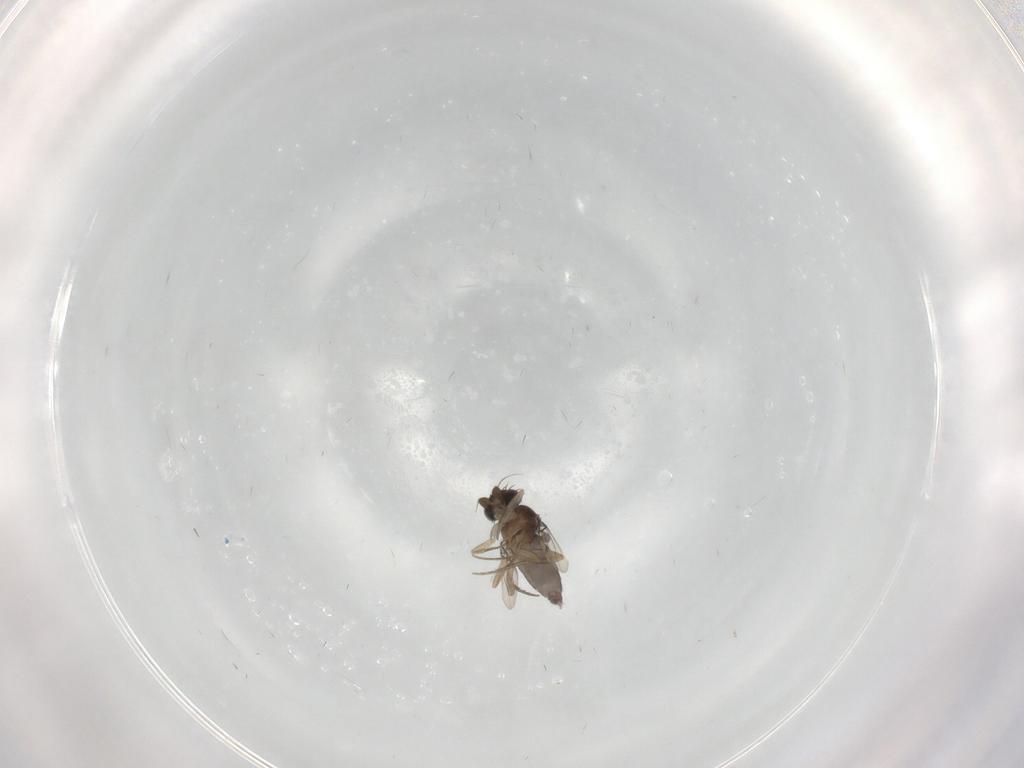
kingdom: Animalia
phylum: Arthropoda
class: Insecta
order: Diptera
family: Phoridae
